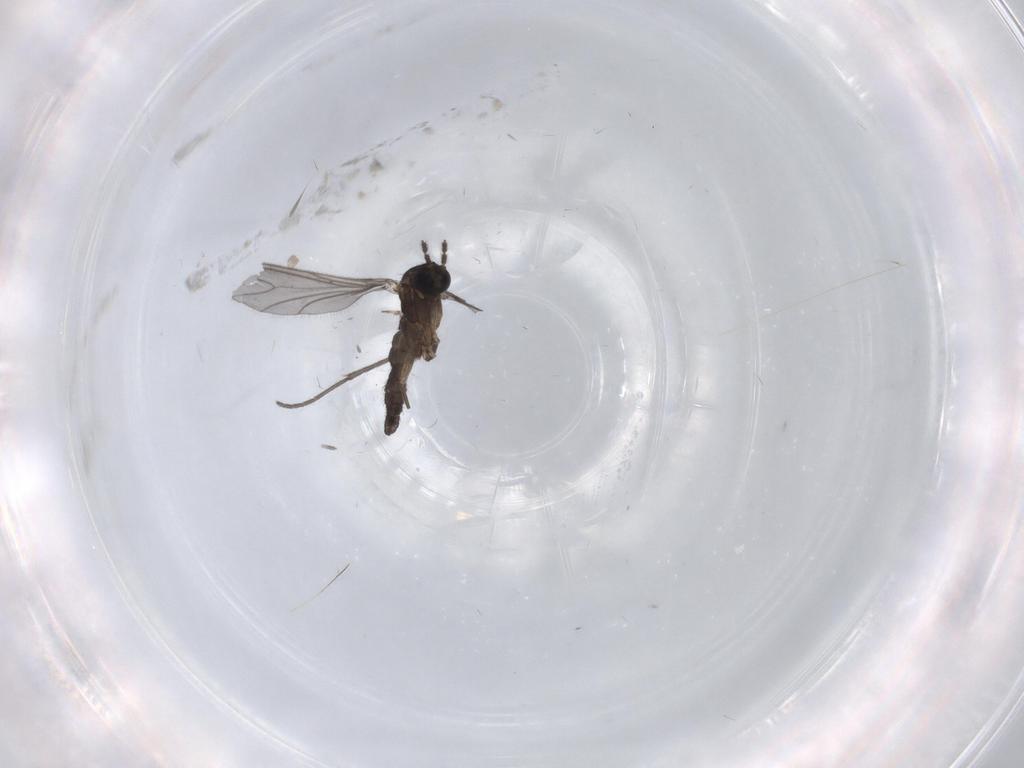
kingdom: Animalia
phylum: Arthropoda
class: Insecta
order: Diptera
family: Sciaridae
